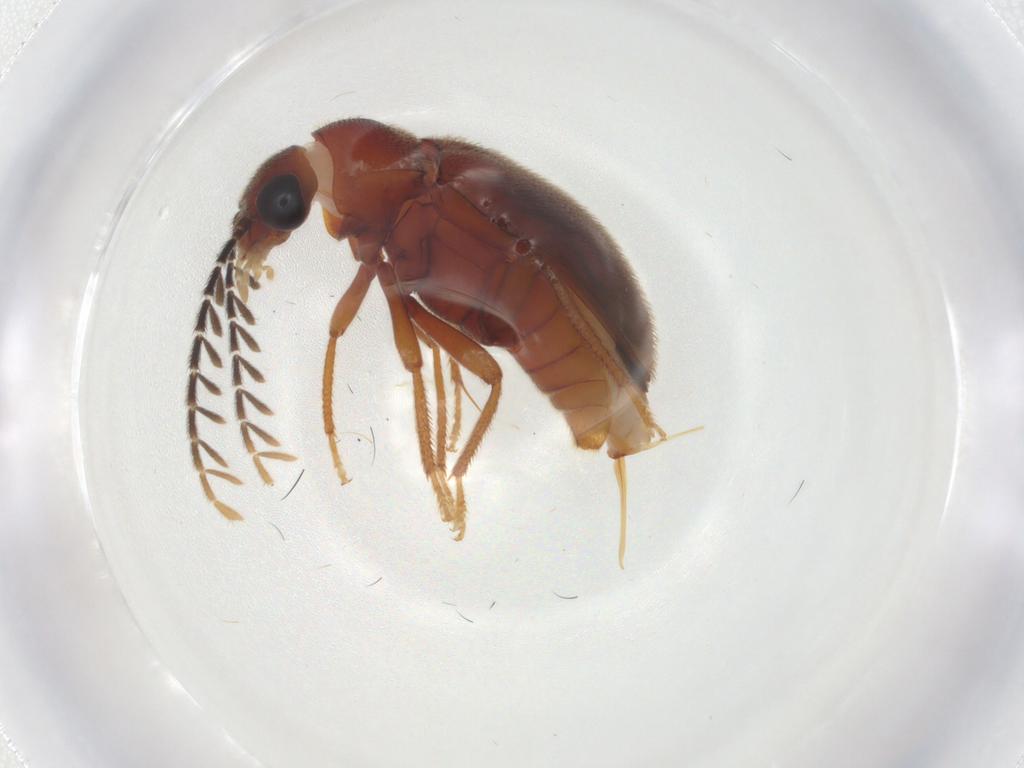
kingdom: Animalia
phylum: Arthropoda
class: Insecta
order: Coleoptera
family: Ptilodactylidae
